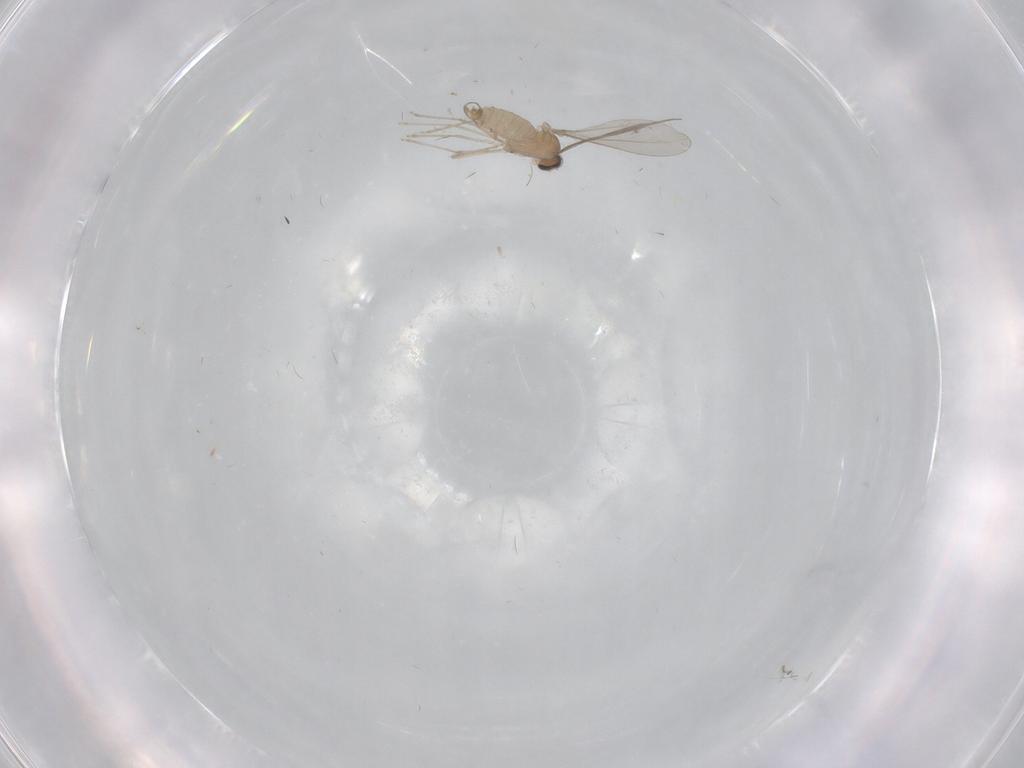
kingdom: Animalia
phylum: Arthropoda
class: Insecta
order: Diptera
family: Cecidomyiidae
